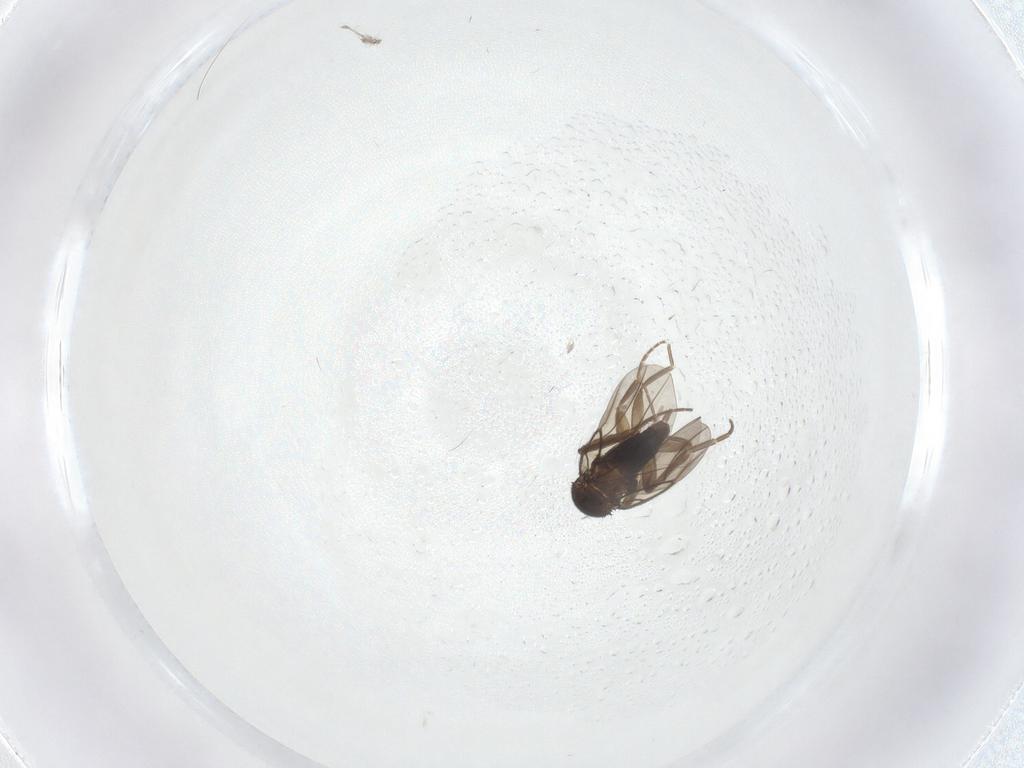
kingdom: Animalia
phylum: Arthropoda
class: Insecta
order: Diptera
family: Phoridae
